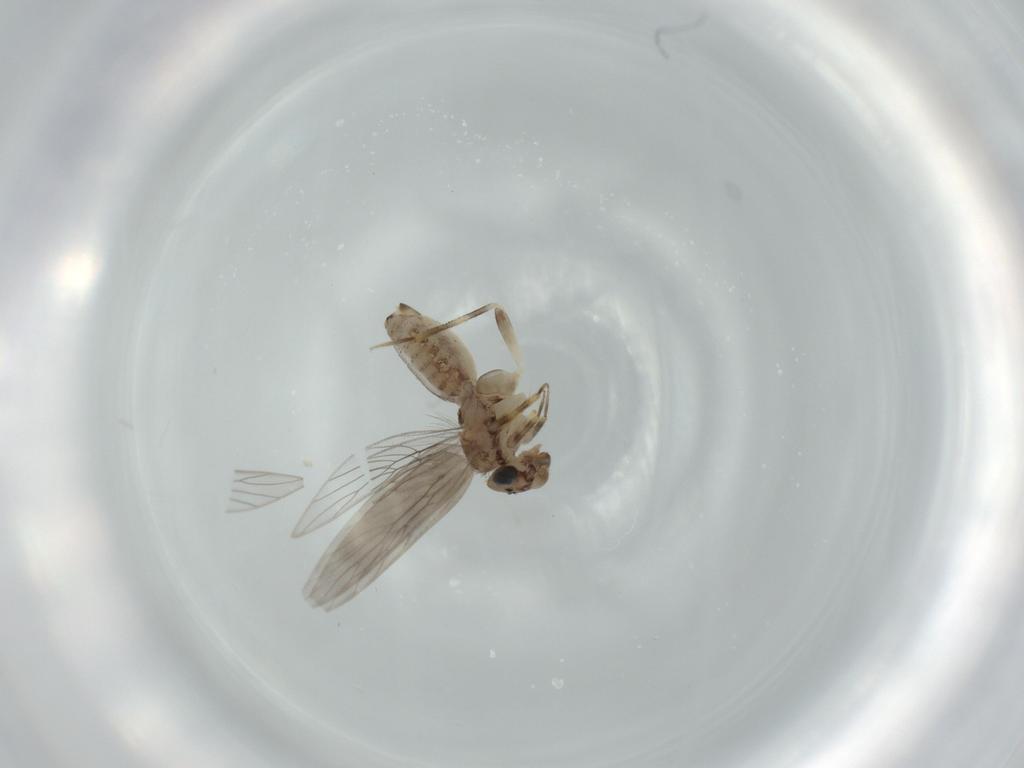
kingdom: Animalia
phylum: Arthropoda
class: Insecta
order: Psocodea
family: Lepidopsocidae
